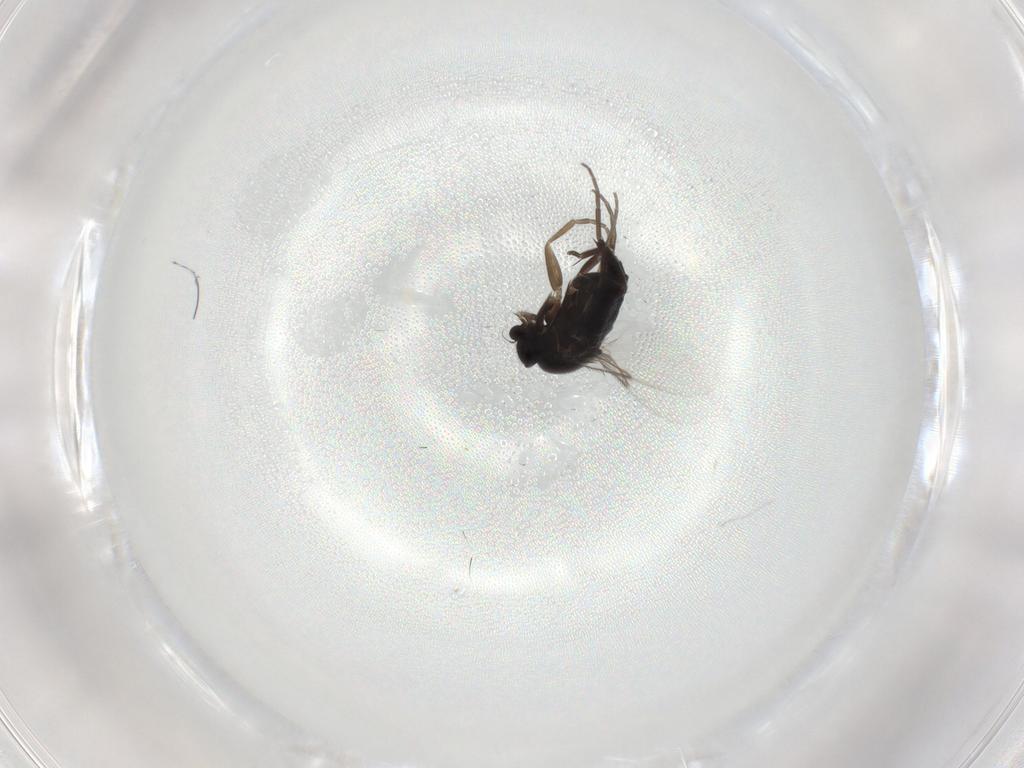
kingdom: Animalia
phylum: Arthropoda
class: Insecta
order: Diptera
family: Phoridae
